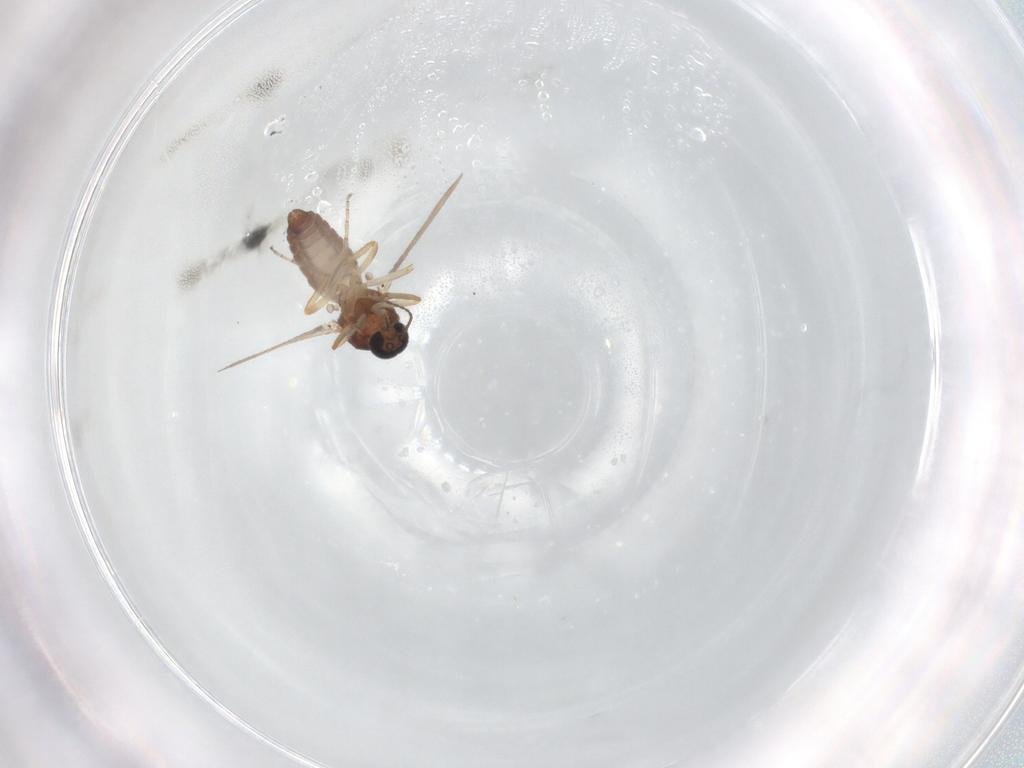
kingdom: Animalia
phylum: Arthropoda
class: Insecta
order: Diptera
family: Ceratopogonidae
